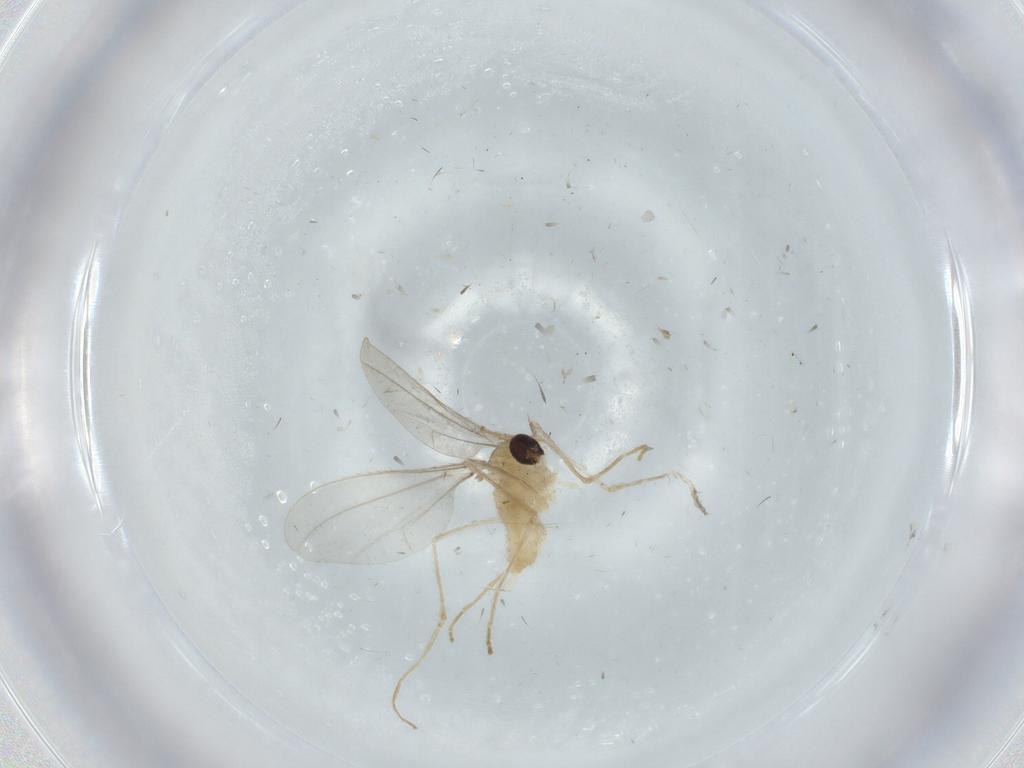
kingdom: Animalia
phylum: Arthropoda
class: Insecta
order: Diptera
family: Cecidomyiidae
